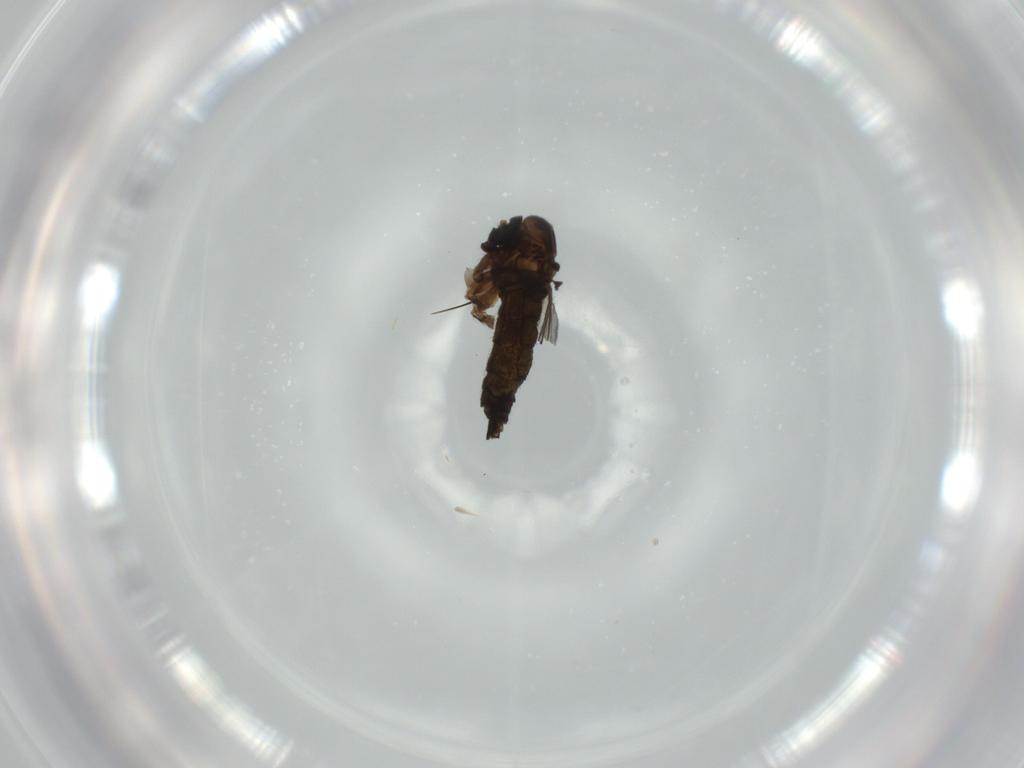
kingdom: Animalia
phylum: Arthropoda
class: Insecta
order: Diptera
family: Sciaridae
